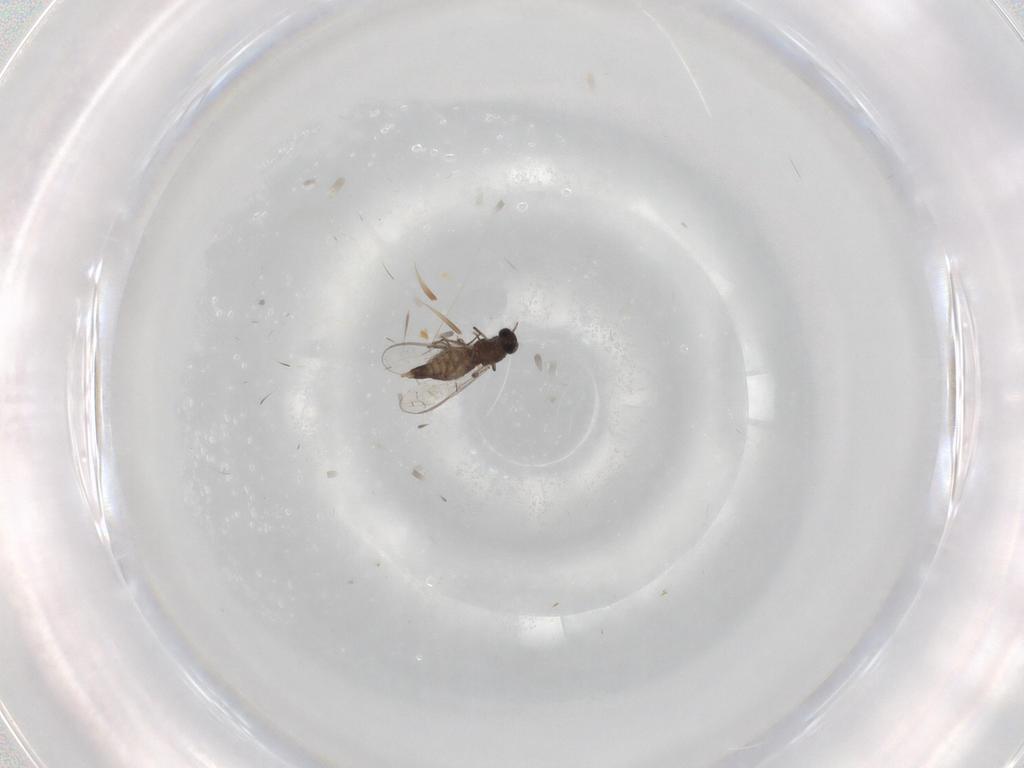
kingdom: Animalia
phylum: Arthropoda
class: Insecta
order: Diptera
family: Chironomidae
